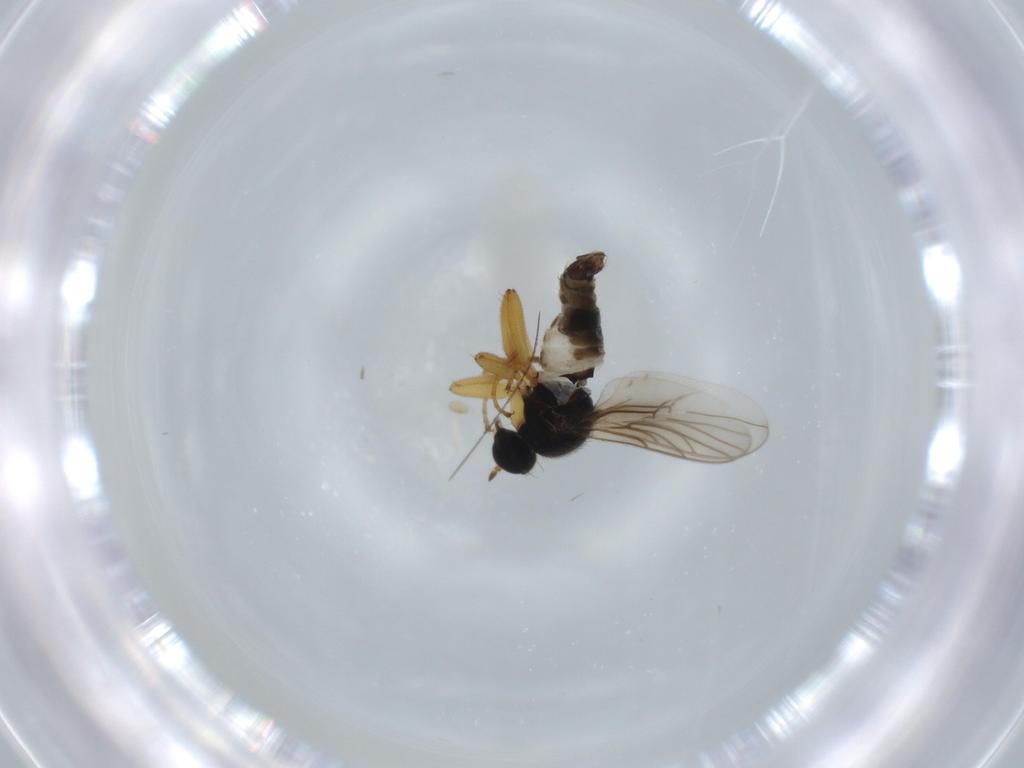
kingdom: Animalia
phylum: Arthropoda
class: Insecta
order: Diptera
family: Hybotidae
